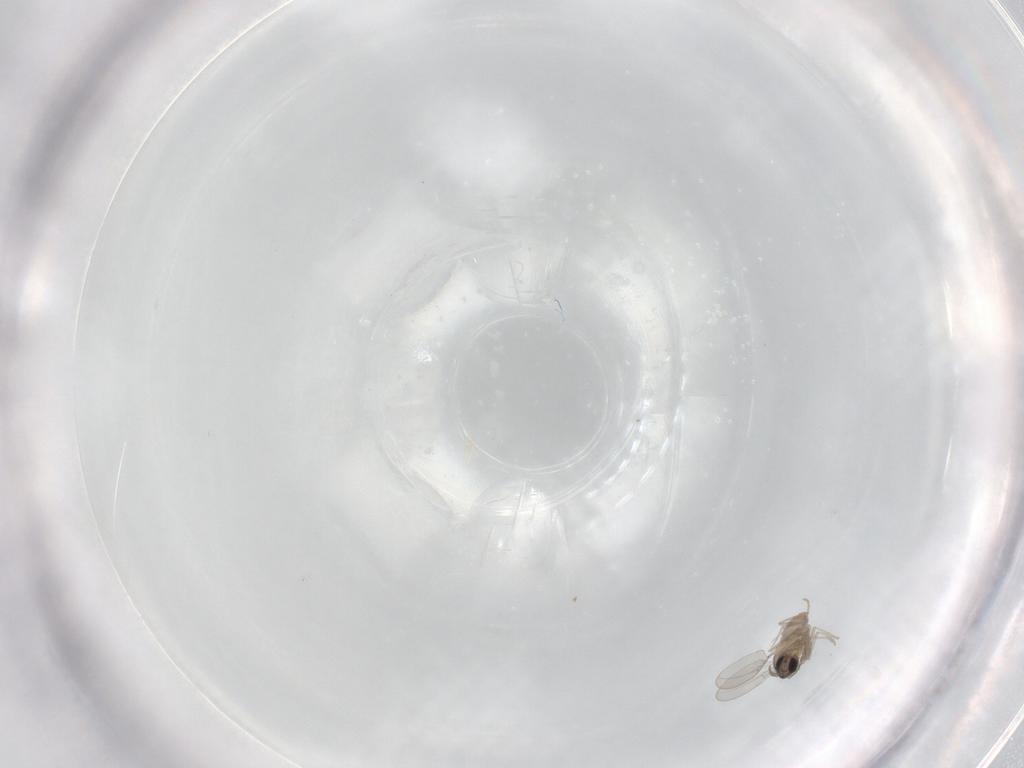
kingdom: Animalia
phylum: Arthropoda
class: Insecta
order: Diptera
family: Cecidomyiidae
